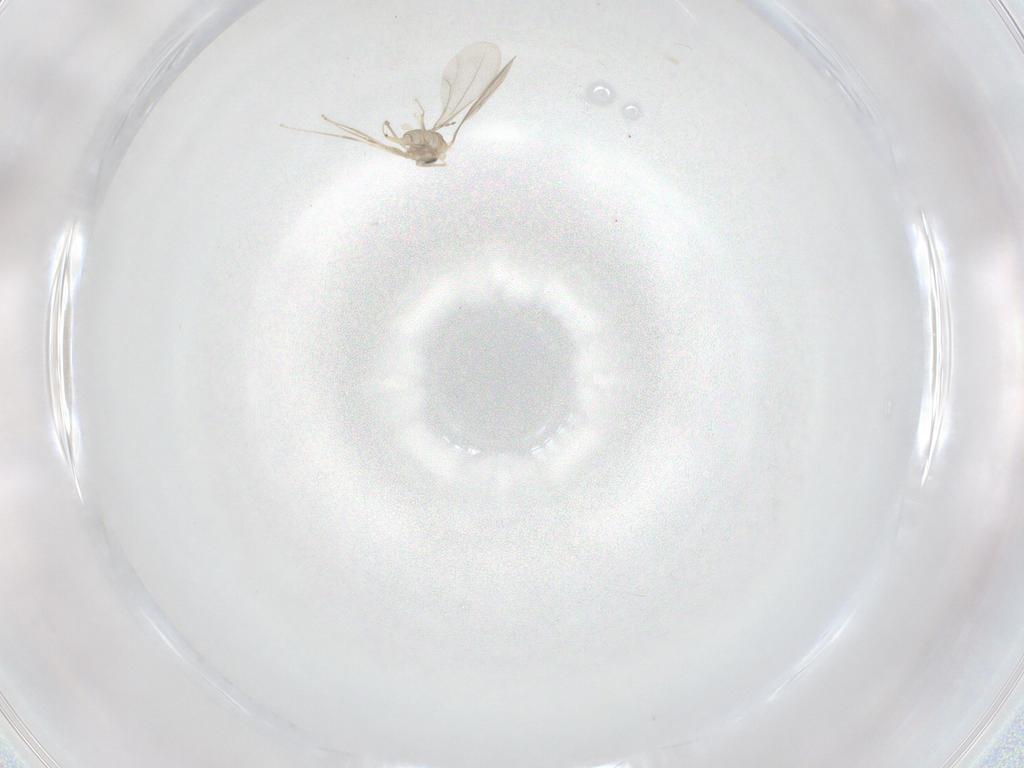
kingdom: Animalia
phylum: Arthropoda
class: Insecta
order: Diptera
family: Cecidomyiidae
